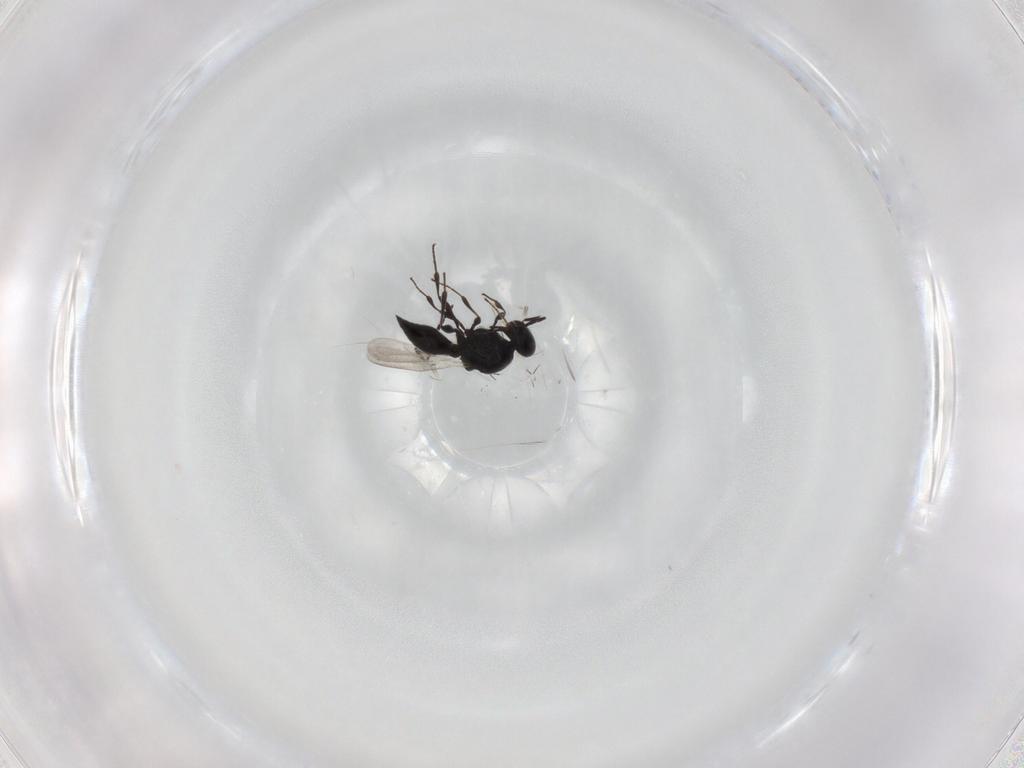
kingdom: Animalia
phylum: Arthropoda
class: Insecta
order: Hymenoptera
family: Platygastridae
